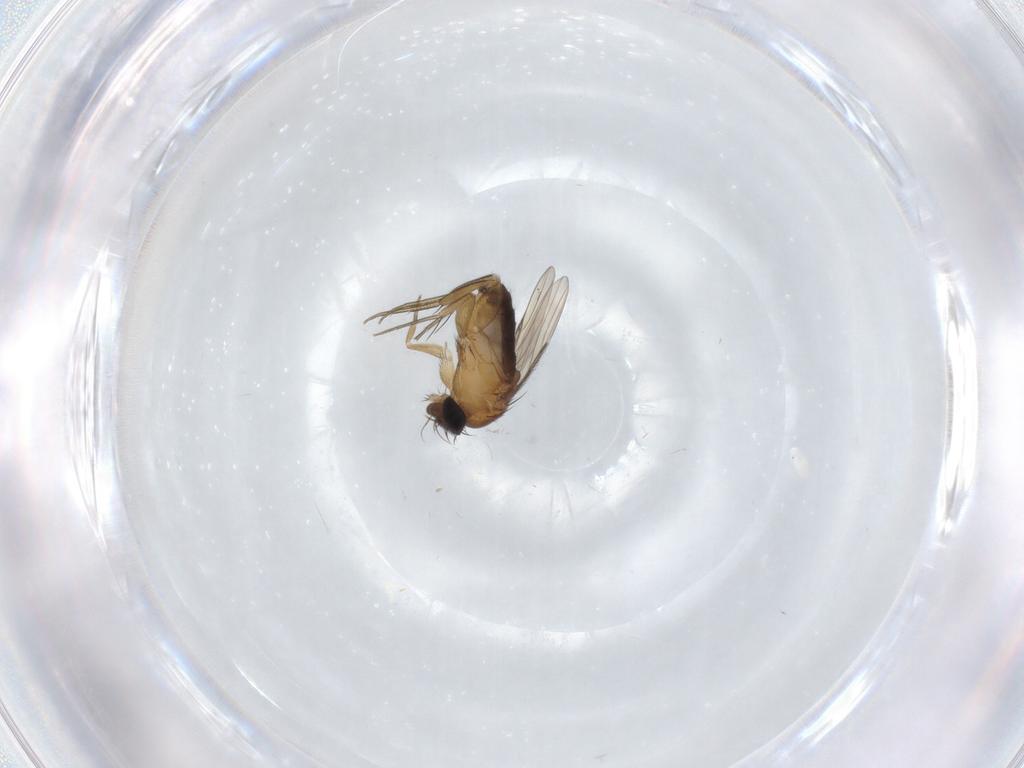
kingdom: Animalia
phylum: Arthropoda
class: Insecta
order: Diptera
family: Phoridae
